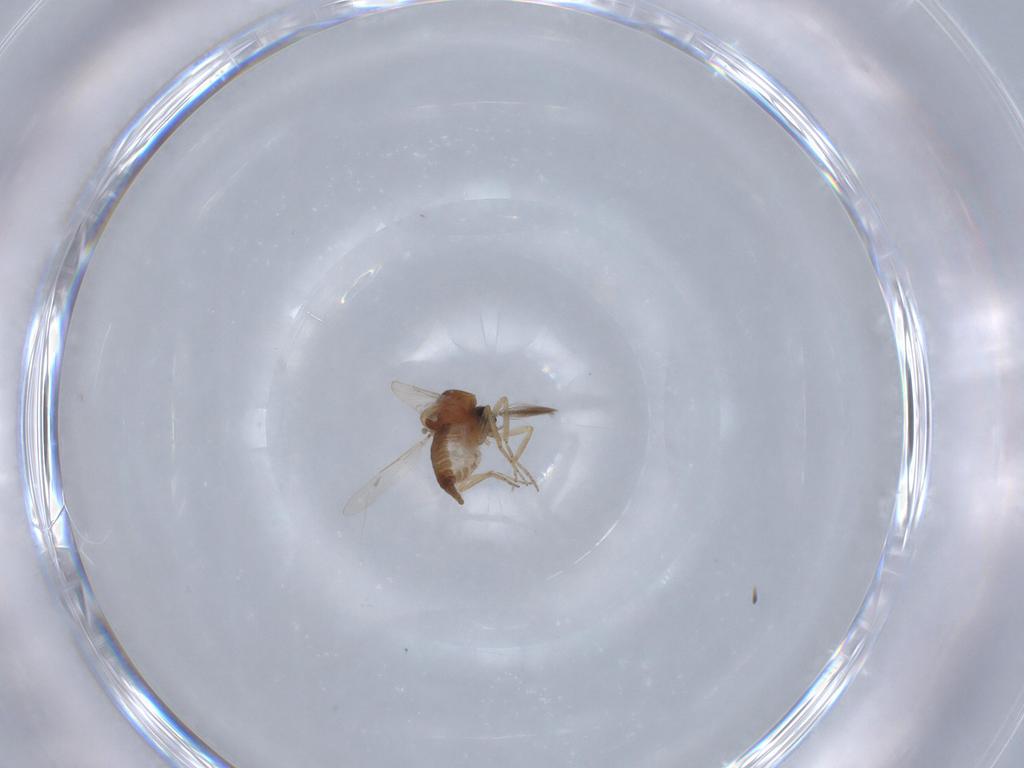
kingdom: Animalia
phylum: Arthropoda
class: Insecta
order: Diptera
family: Ceratopogonidae
